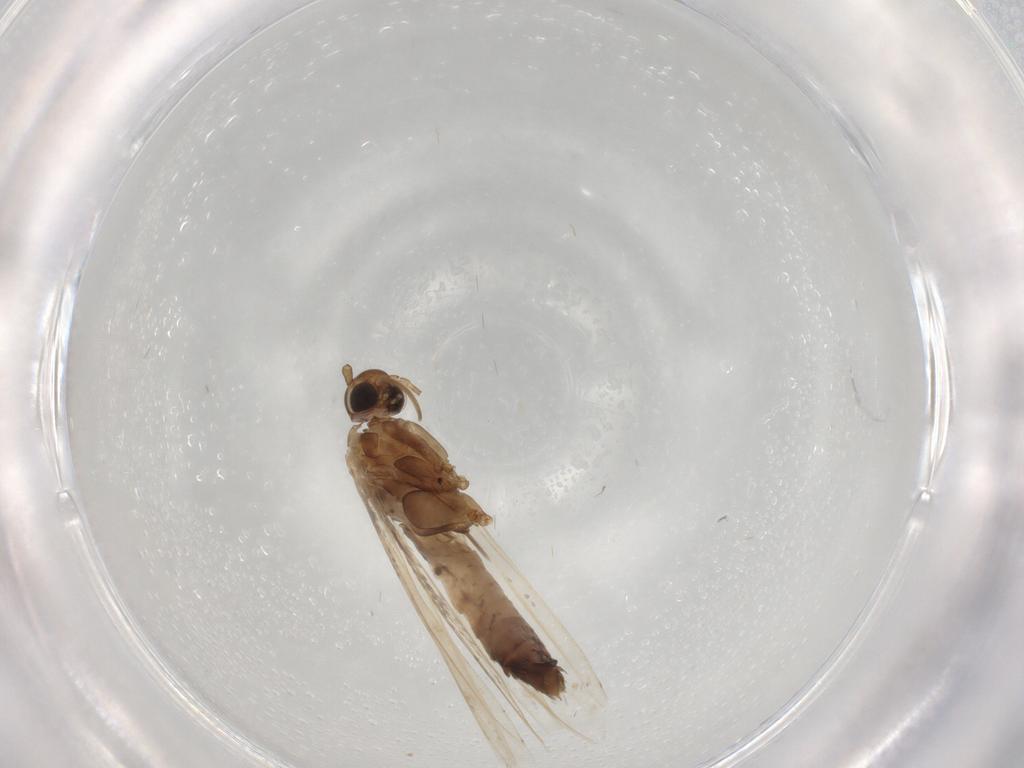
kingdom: Animalia
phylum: Arthropoda
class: Insecta
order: Lepidoptera
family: Gracillariidae
